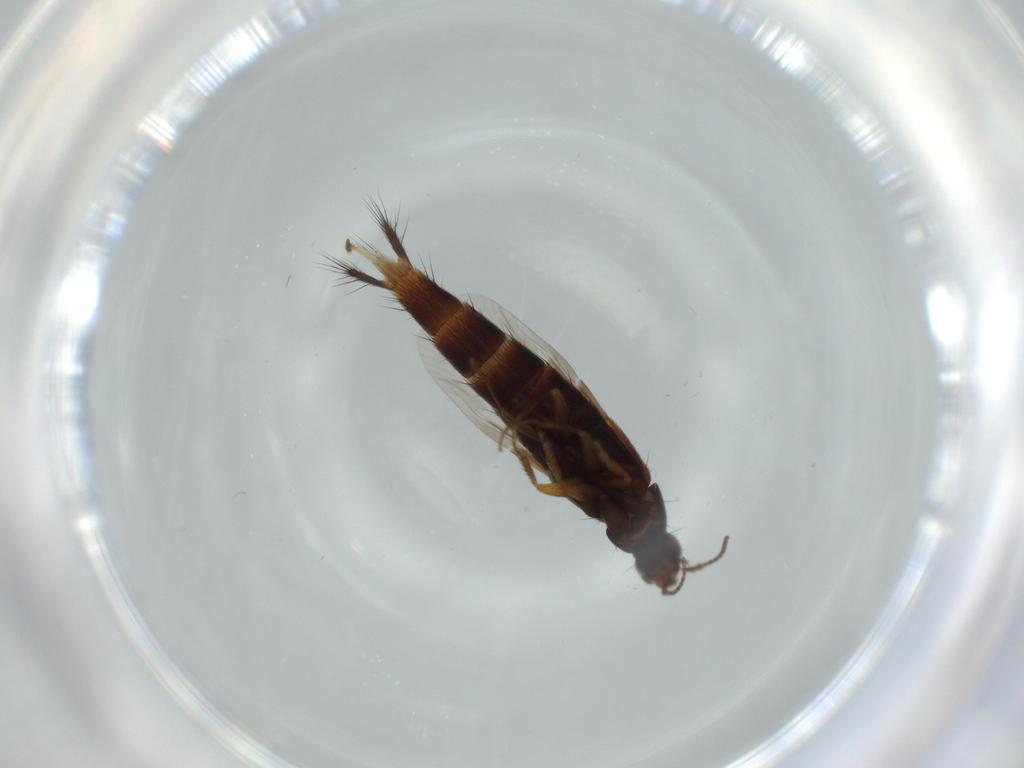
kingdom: Animalia
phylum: Arthropoda
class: Insecta
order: Coleoptera
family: Staphylinidae
